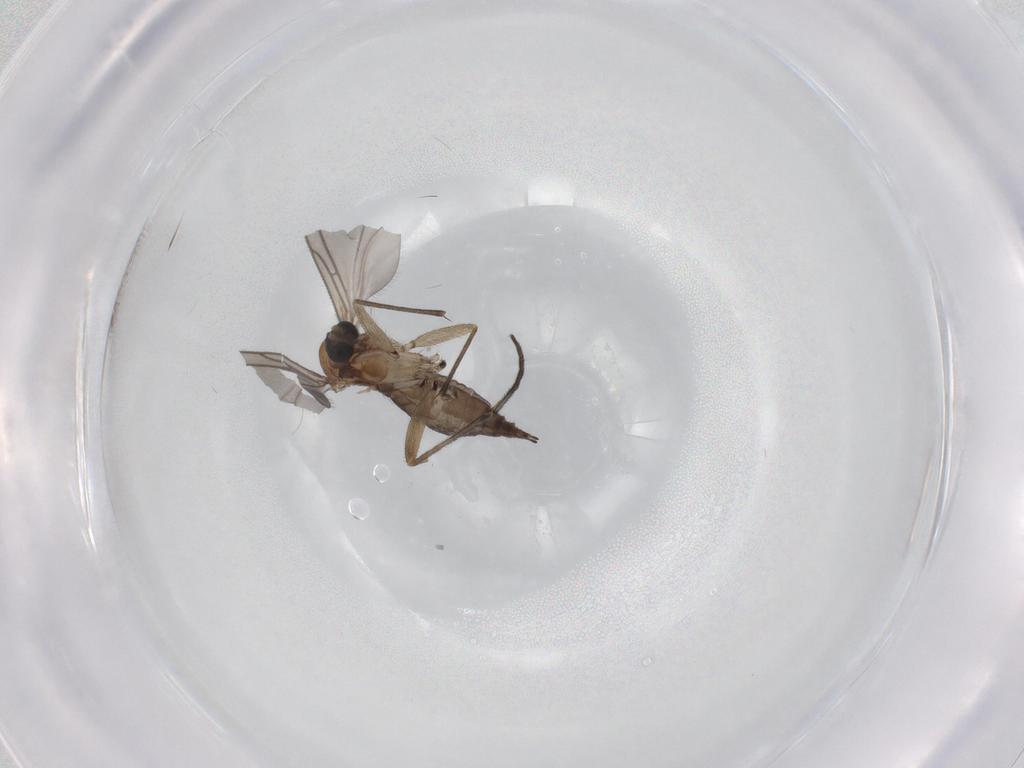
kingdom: Animalia
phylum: Arthropoda
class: Insecta
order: Diptera
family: Sciaridae
